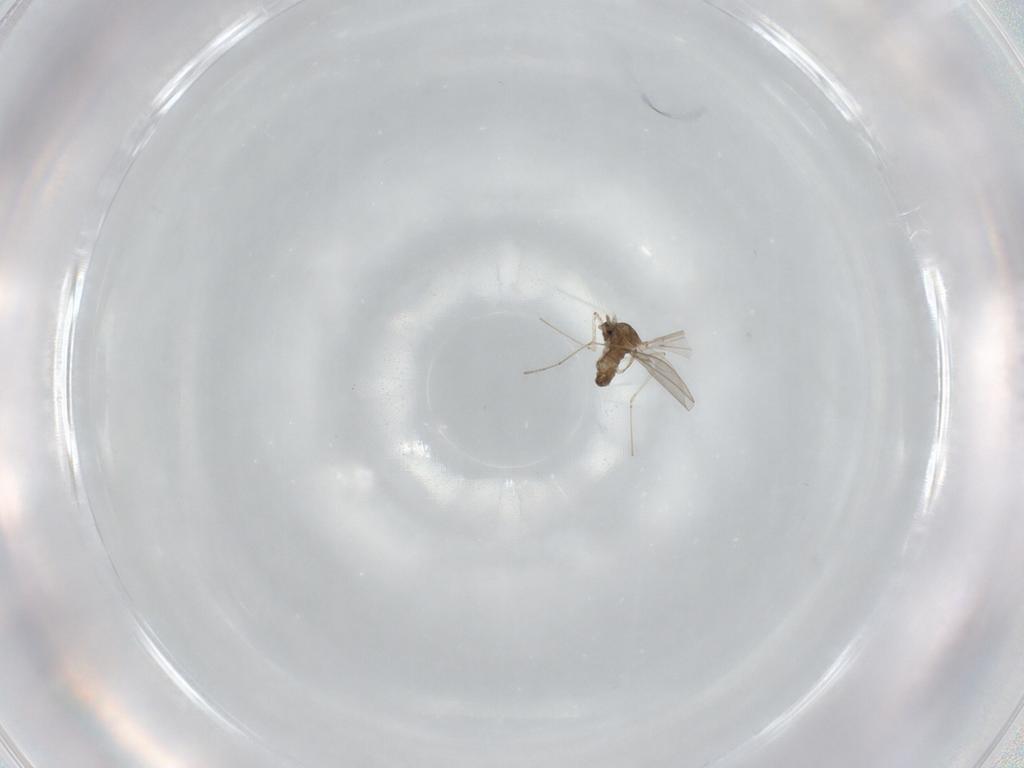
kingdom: Animalia
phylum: Arthropoda
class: Insecta
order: Diptera
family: Cecidomyiidae
